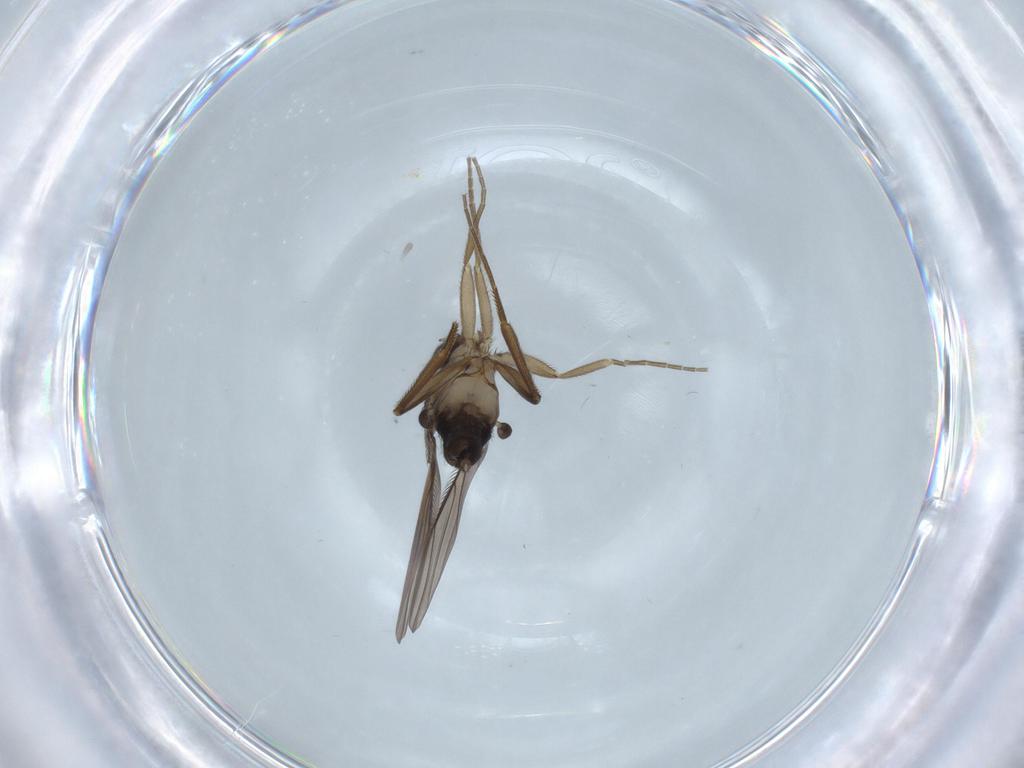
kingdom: Animalia
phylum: Arthropoda
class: Insecta
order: Diptera
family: Phoridae
